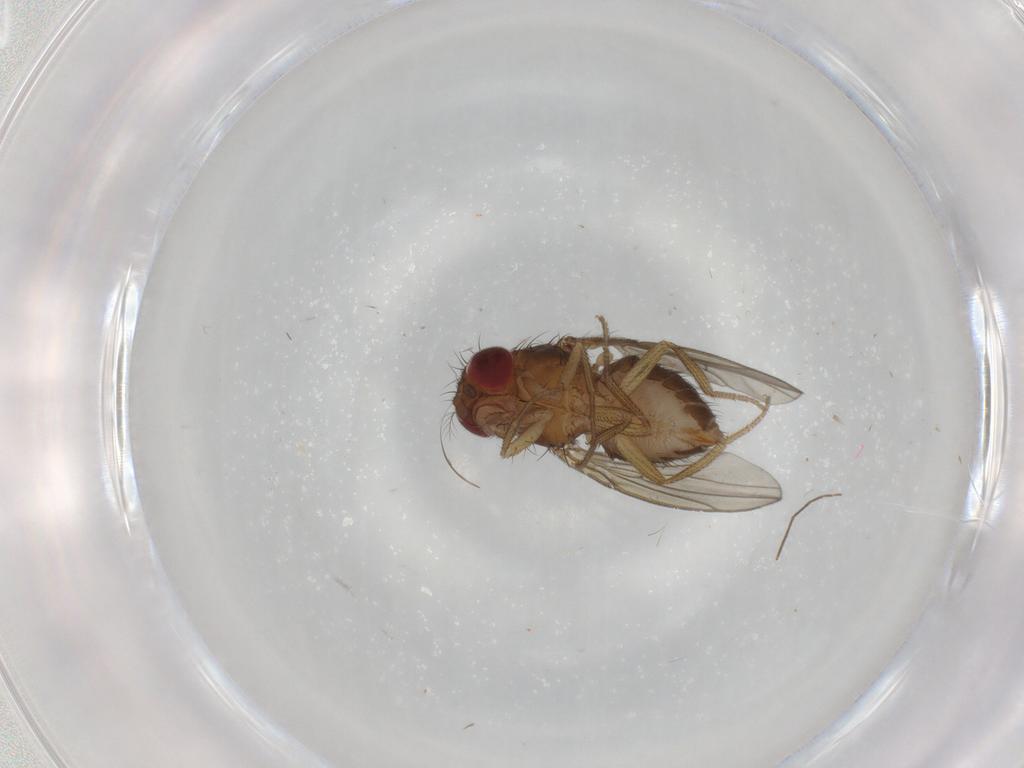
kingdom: Animalia
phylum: Arthropoda
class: Insecta
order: Diptera
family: Drosophilidae
